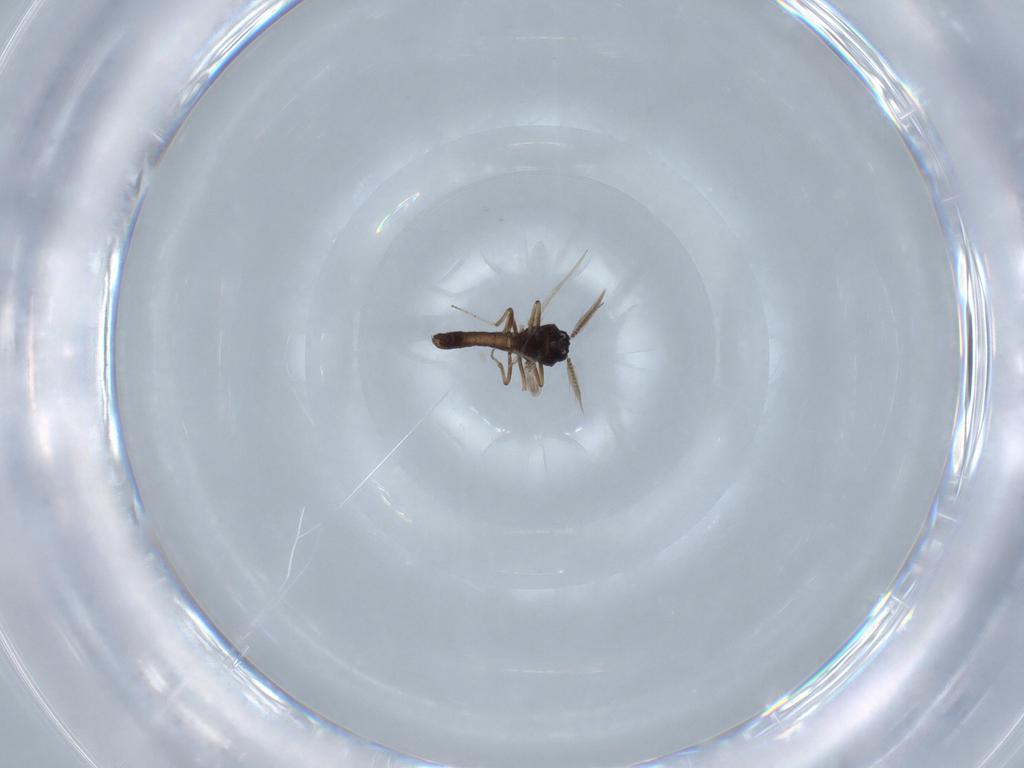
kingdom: Animalia
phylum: Arthropoda
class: Insecta
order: Diptera
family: Ceratopogonidae
